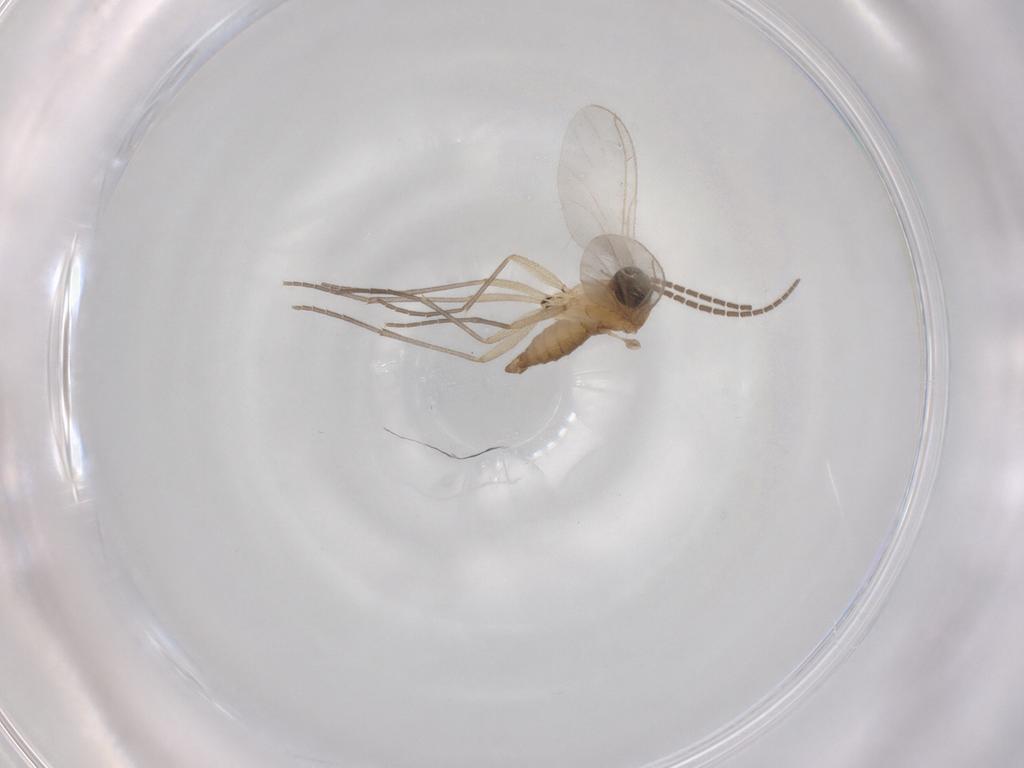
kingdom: Animalia
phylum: Arthropoda
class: Insecta
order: Diptera
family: Sciaridae
